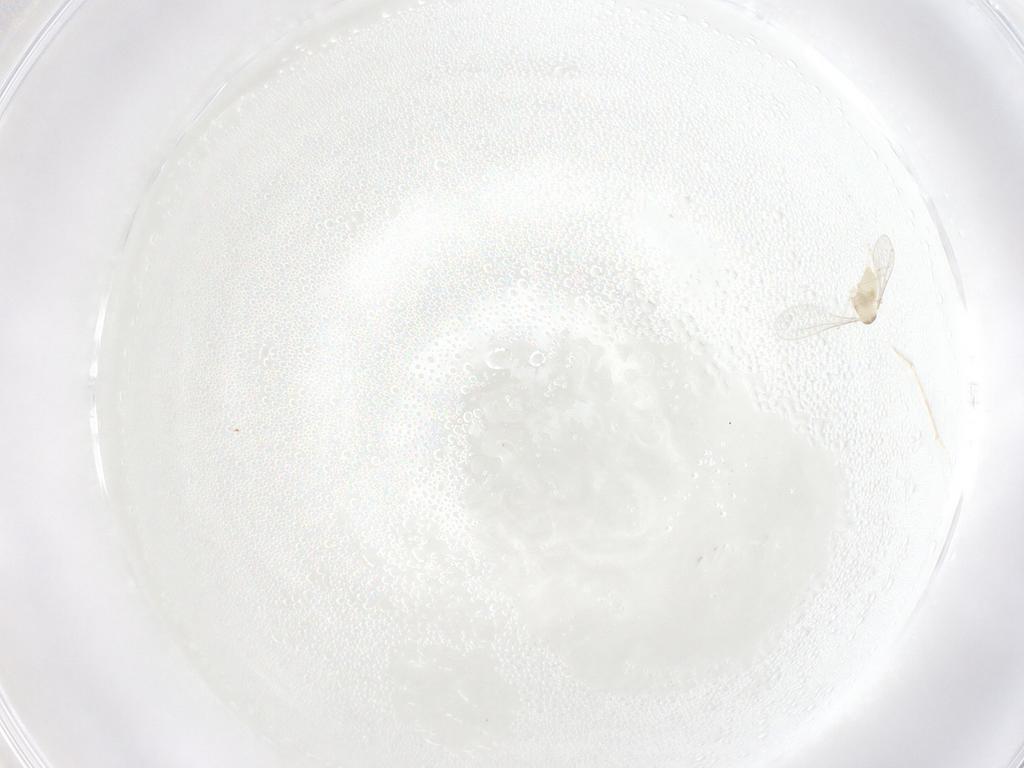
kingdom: Animalia
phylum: Arthropoda
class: Insecta
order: Diptera
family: Cecidomyiidae
